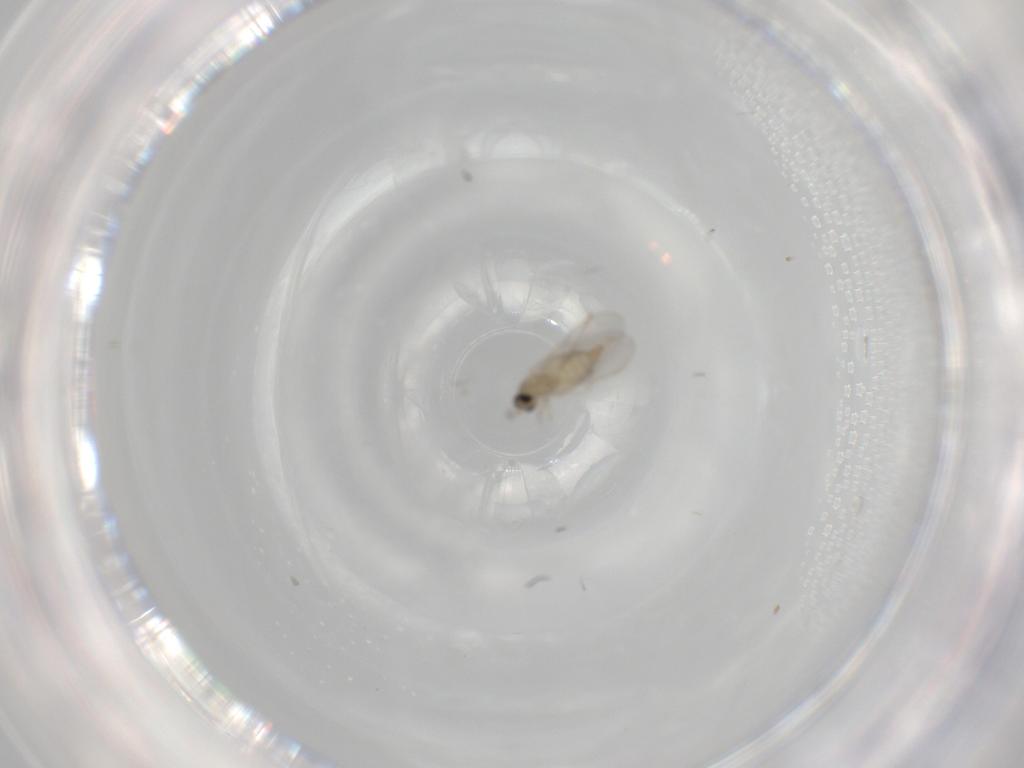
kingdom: Animalia
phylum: Arthropoda
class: Insecta
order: Diptera
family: Cecidomyiidae
